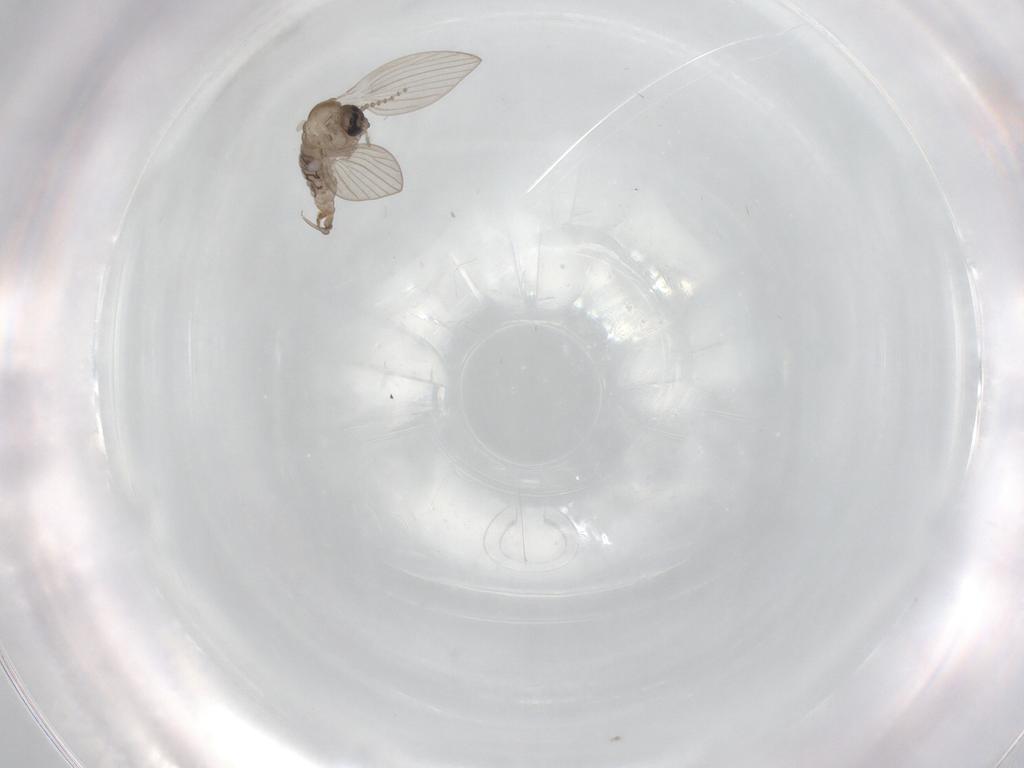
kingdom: Animalia
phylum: Arthropoda
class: Insecta
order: Diptera
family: Psychodidae
